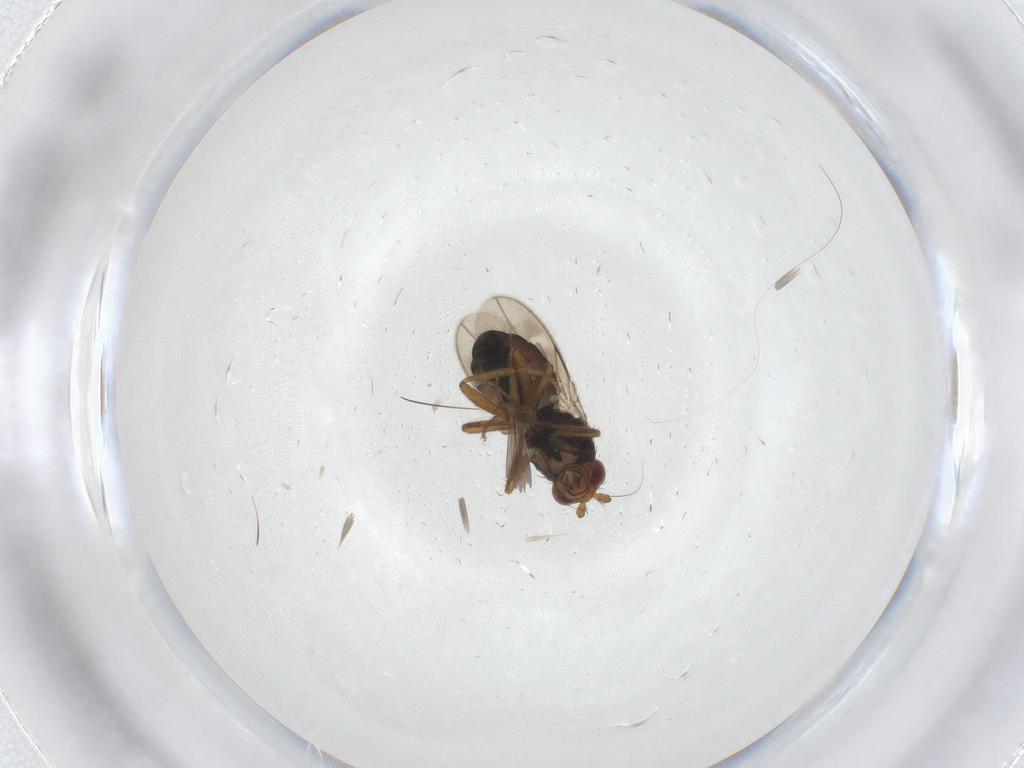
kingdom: Animalia
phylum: Arthropoda
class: Insecta
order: Diptera
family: Sphaeroceridae
